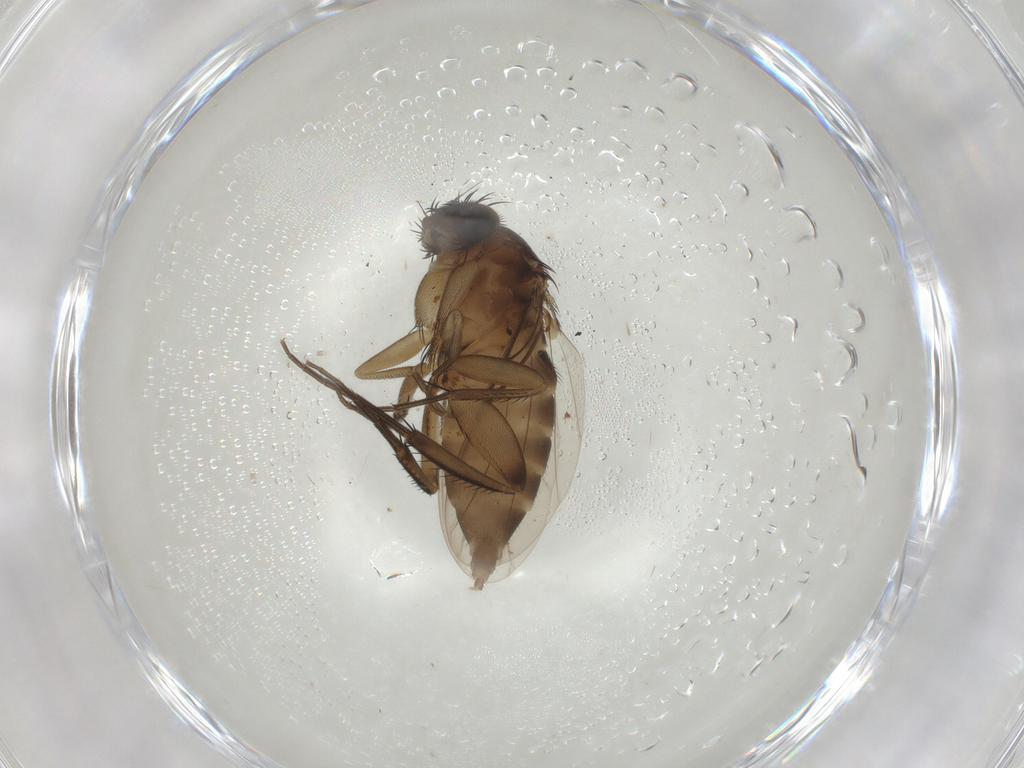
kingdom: Animalia
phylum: Arthropoda
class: Insecta
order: Diptera
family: Phoridae
